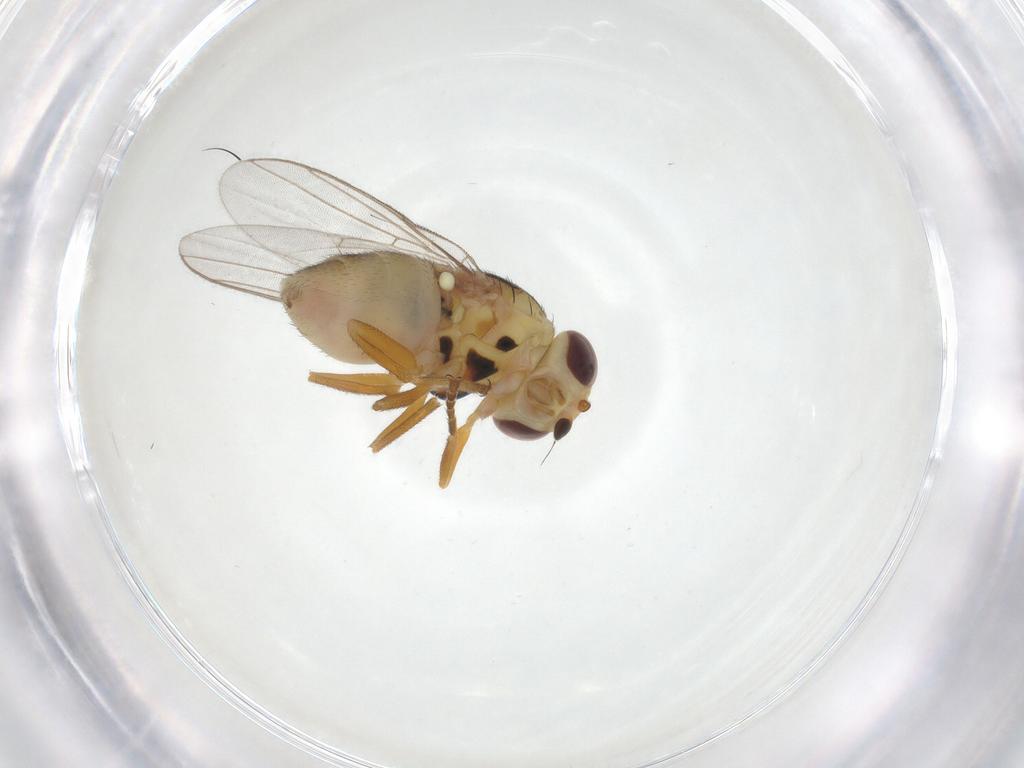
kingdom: Animalia
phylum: Arthropoda
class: Insecta
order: Diptera
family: Chloropidae
